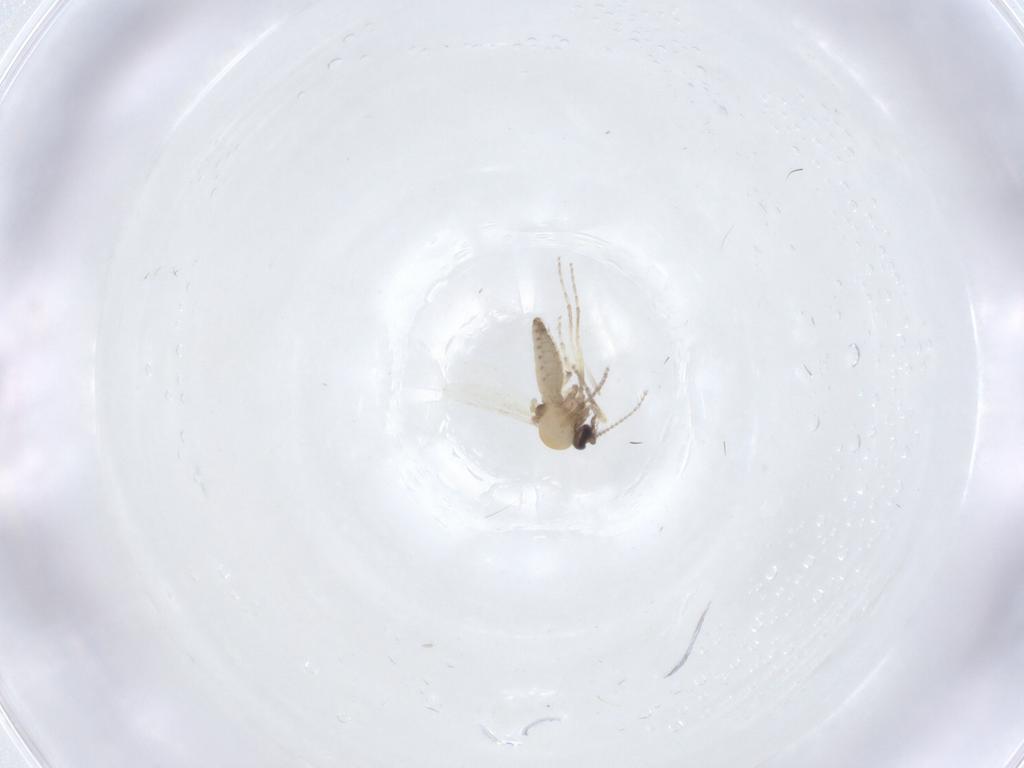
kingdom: Animalia
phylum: Arthropoda
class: Insecta
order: Diptera
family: Ceratopogonidae
